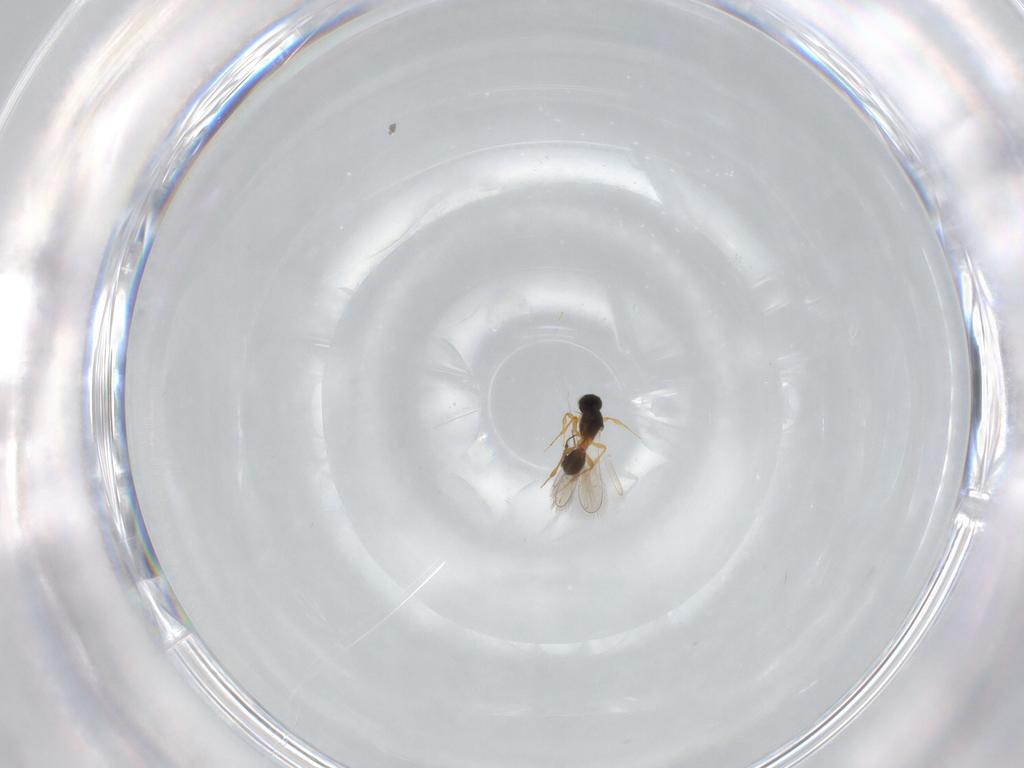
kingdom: Animalia
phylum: Arthropoda
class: Insecta
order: Hymenoptera
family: Platygastridae
